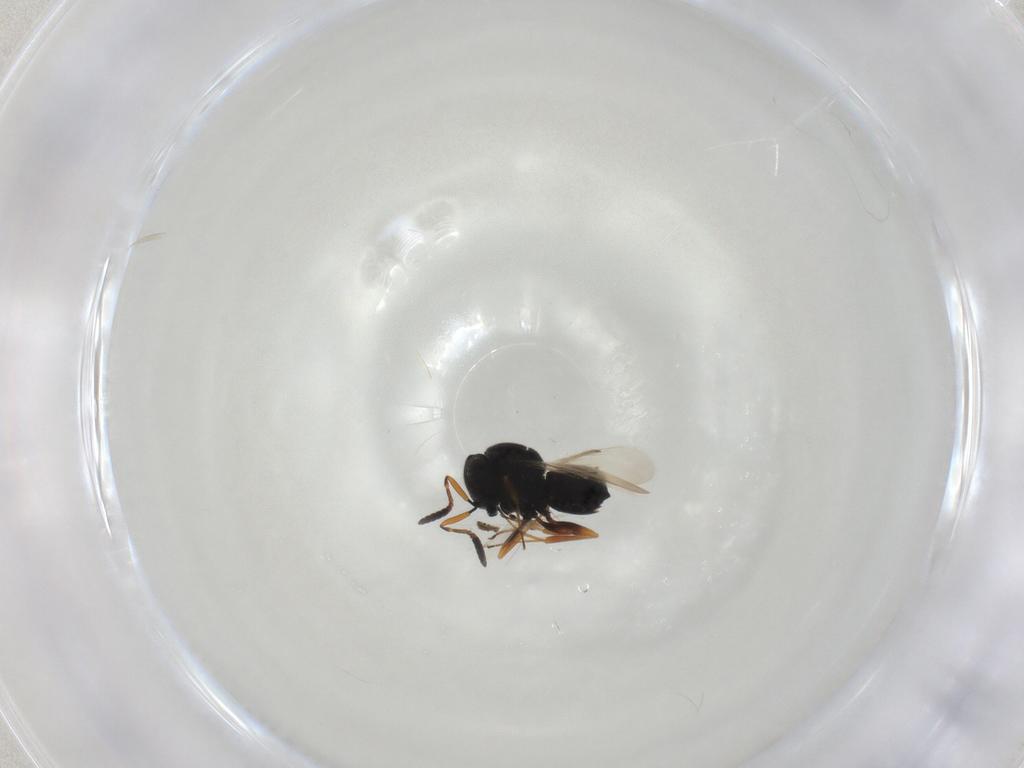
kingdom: Animalia
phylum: Arthropoda
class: Insecta
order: Hymenoptera
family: Scelionidae
